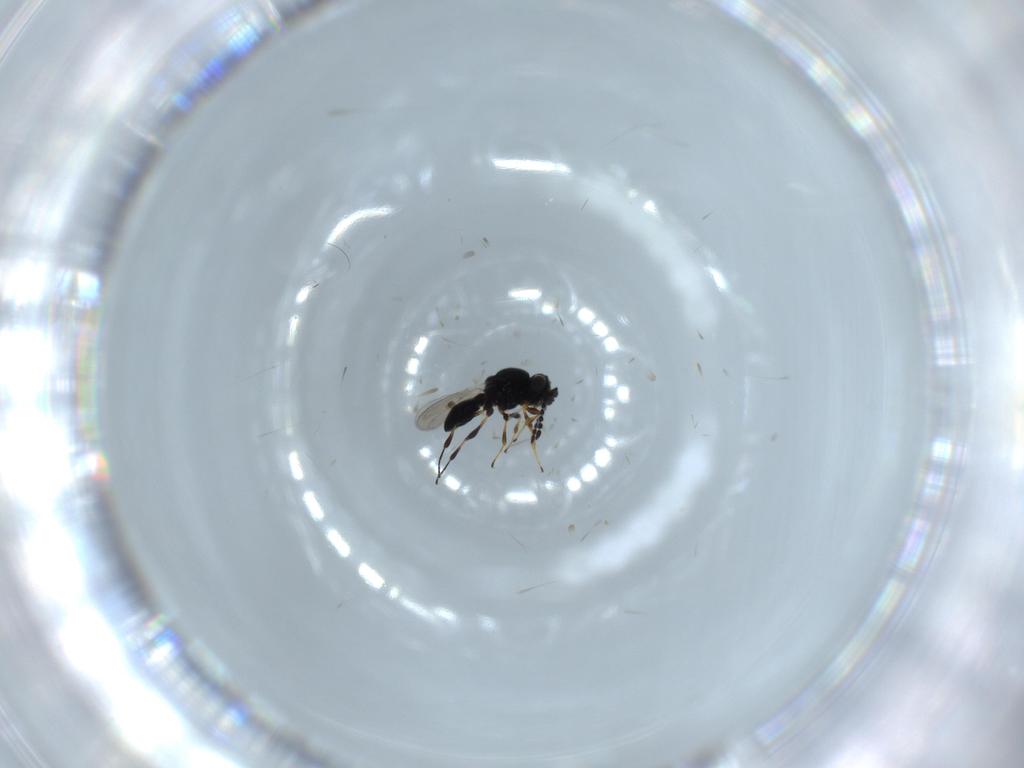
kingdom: Animalia
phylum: Arthropoda
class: Insecta
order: Hymenoptera
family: Platygastridae
